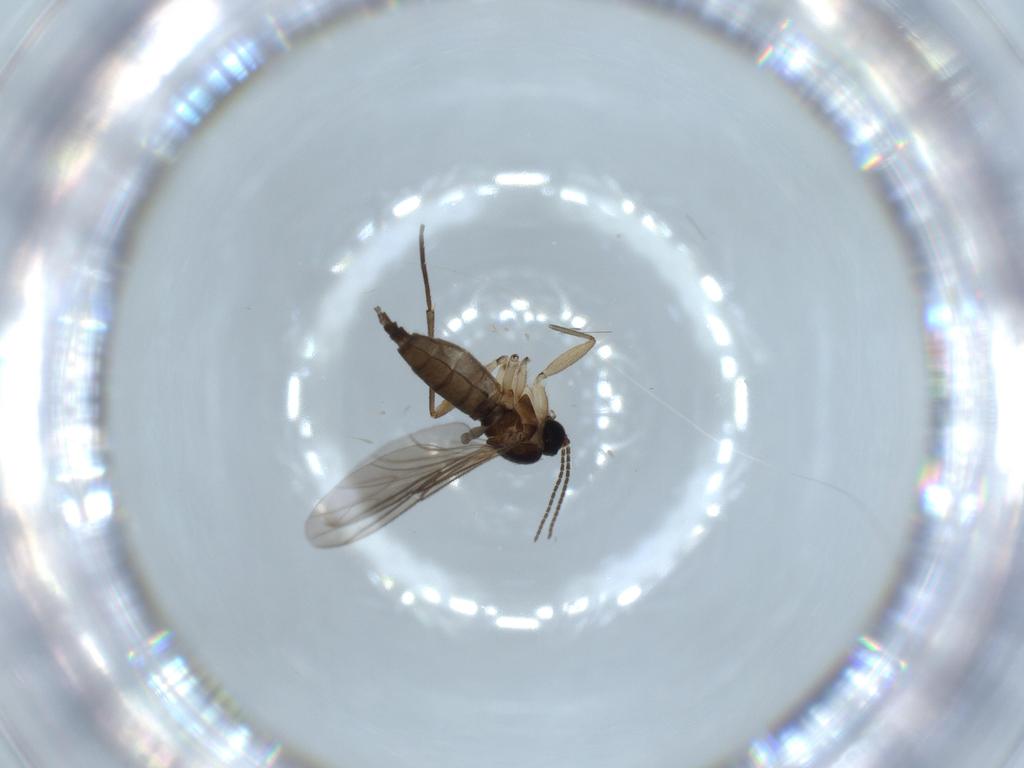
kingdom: Animalia
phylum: Arthropoda
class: Insecta
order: Diptera
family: Sciaridae
